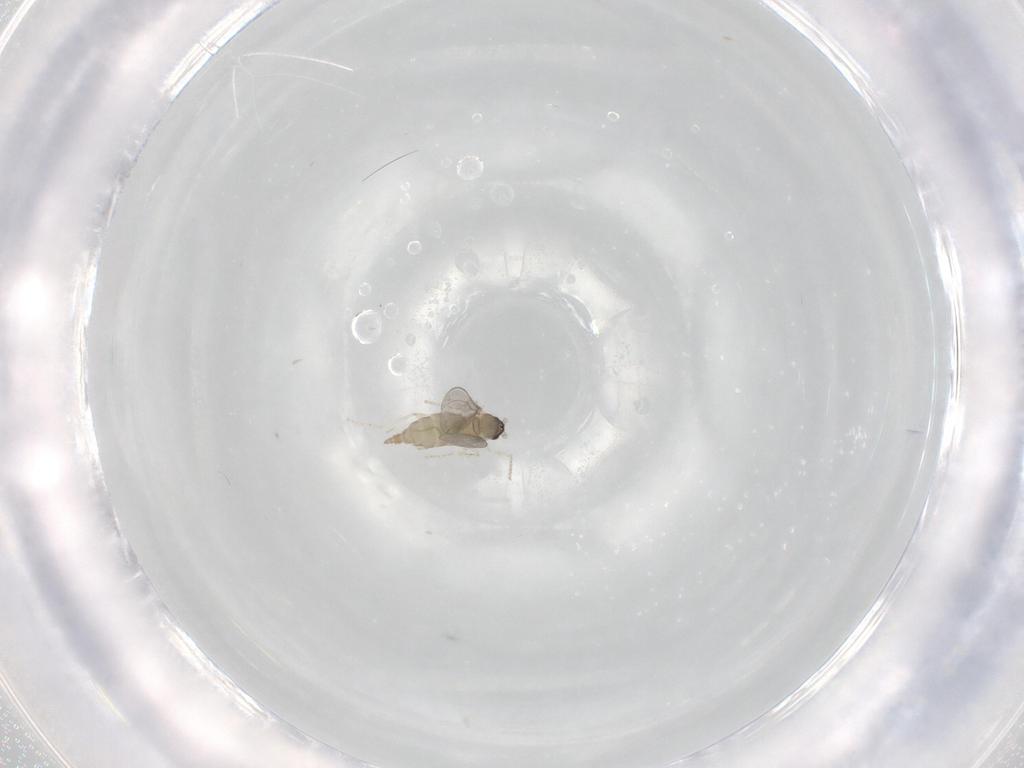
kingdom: Animalia
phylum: Arthropoda
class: Insecta
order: Diptera
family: Cecidomyiidae
